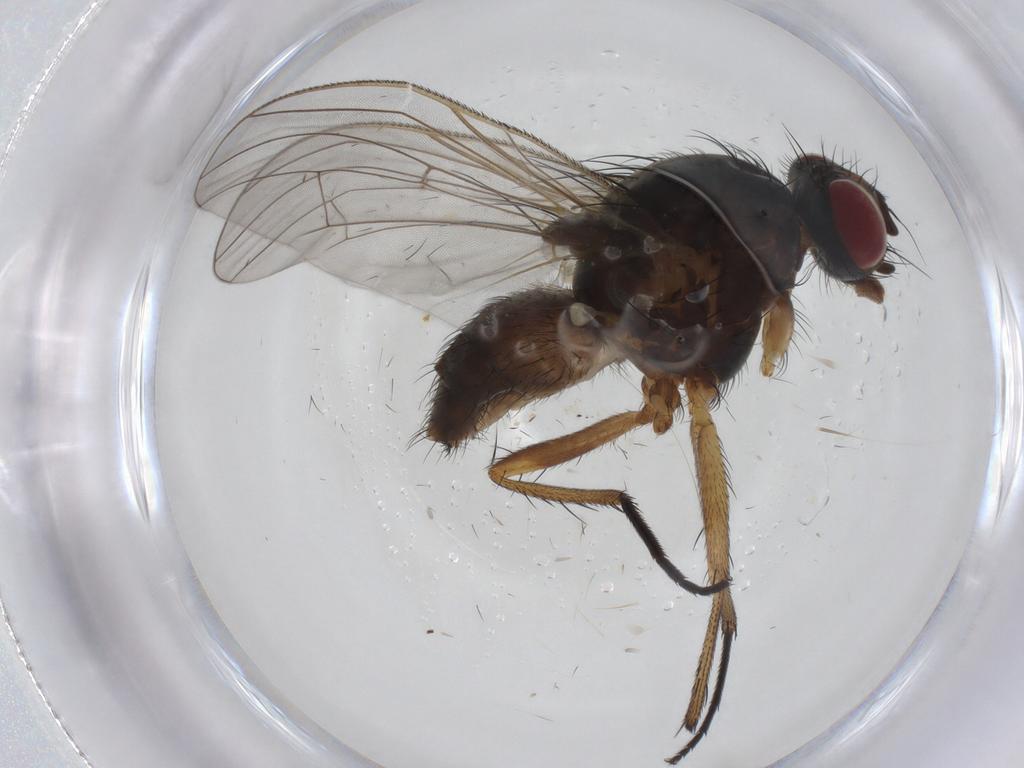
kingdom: Animalia
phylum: Arthropoda
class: Insecta
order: Diptera
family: Anthomyiidae
